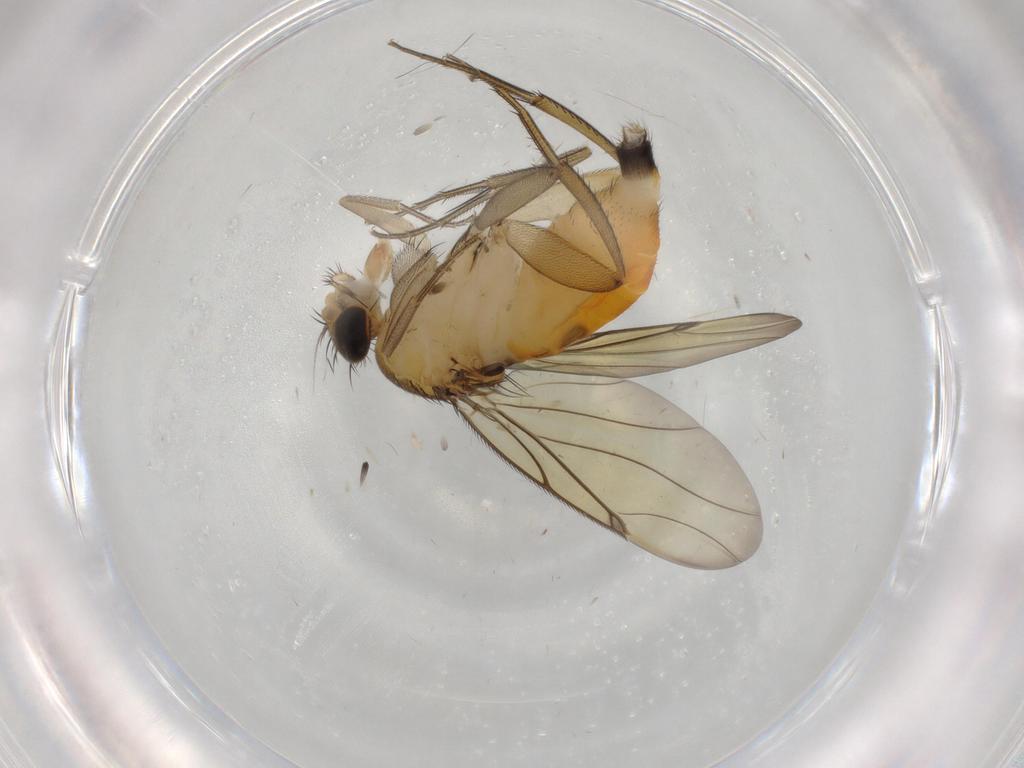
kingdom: Animalia
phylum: Arthropoda
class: Insecta
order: Diptera
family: Phoridae
